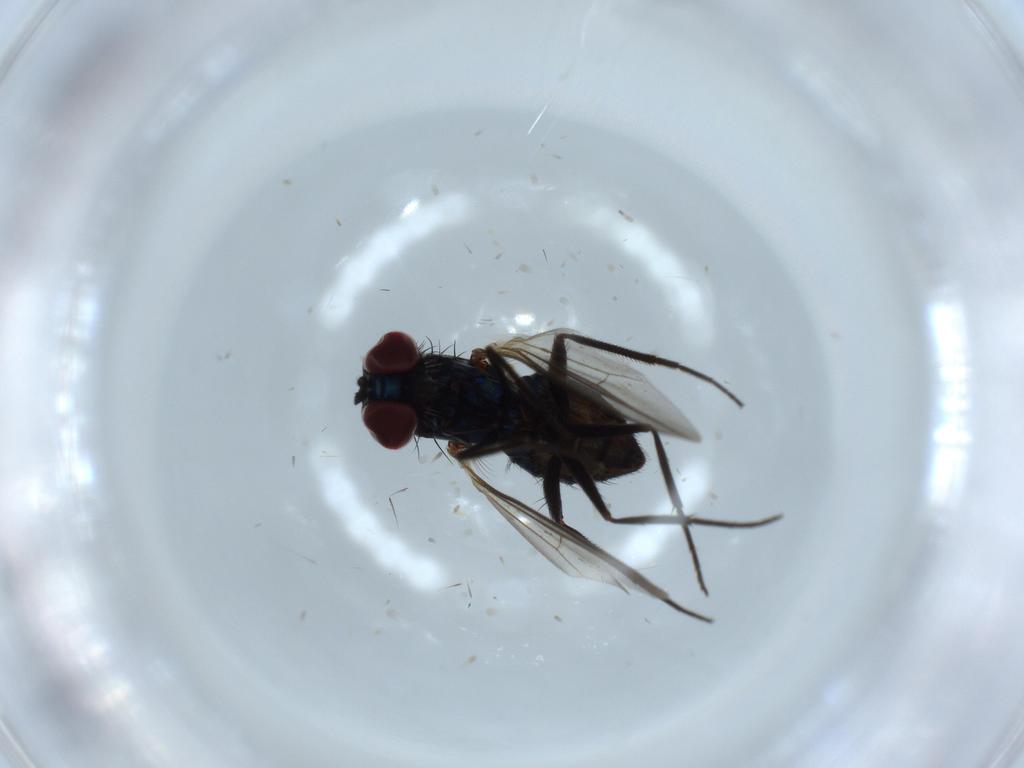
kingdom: Animalia
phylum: Arthropoda
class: Insecta
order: Diptera
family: Dolichopodidae
